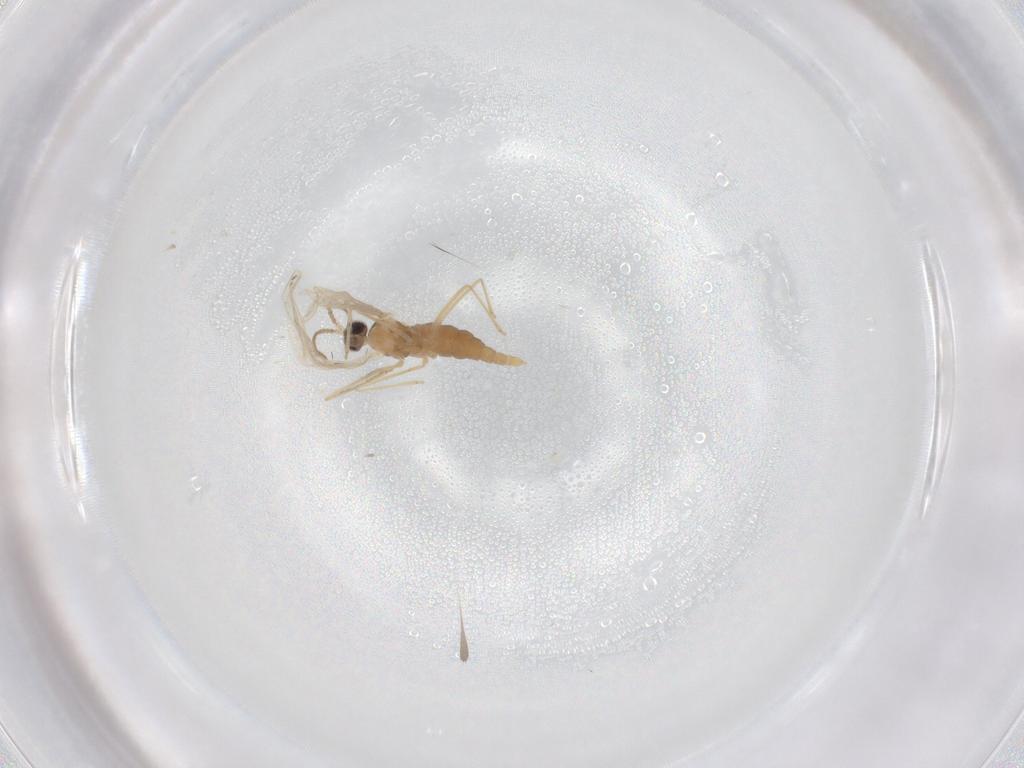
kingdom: Animalia
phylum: Arthropoda
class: Insecta
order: Diptera
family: Cecidomyiidae
